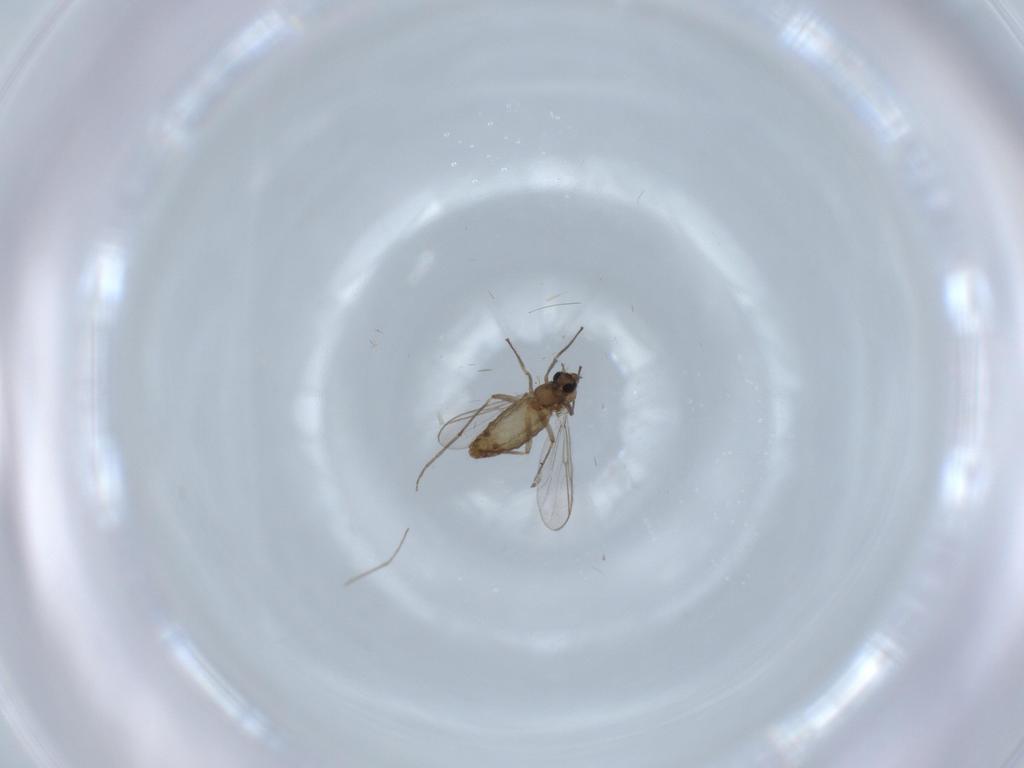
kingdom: Animalia
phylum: Arthropoda
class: Insecta
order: Diptera
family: Chironomidae
